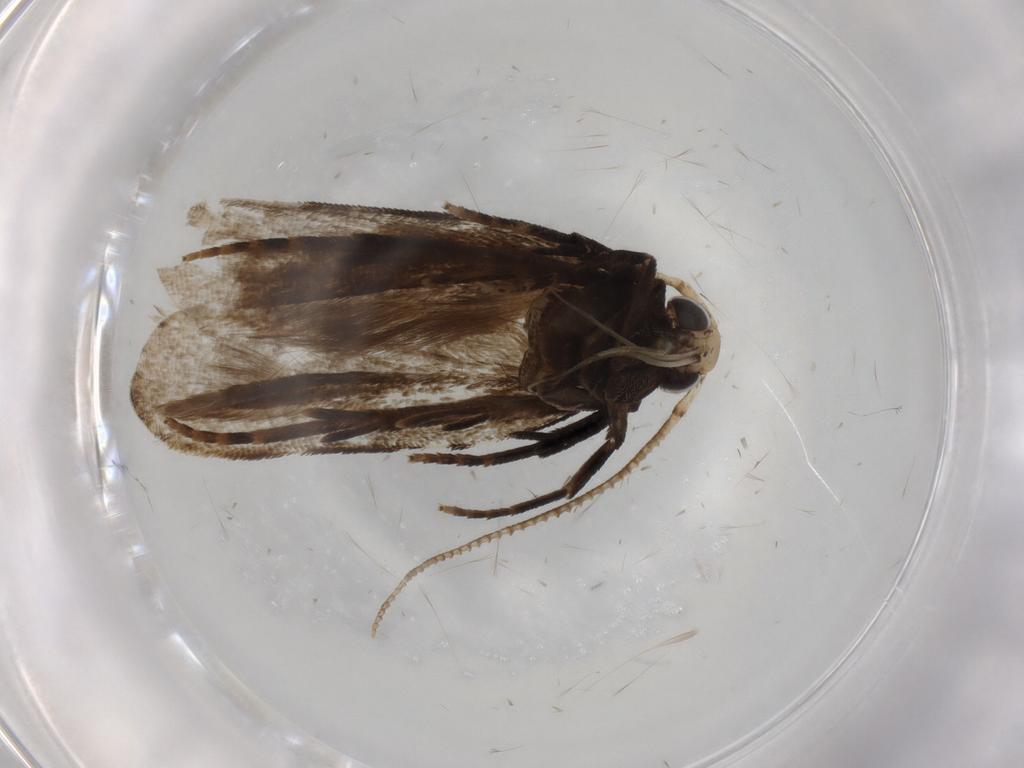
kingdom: Animalia
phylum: Arthropoda
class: Insecta
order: Lepidoptera
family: Cosmopterigidae
